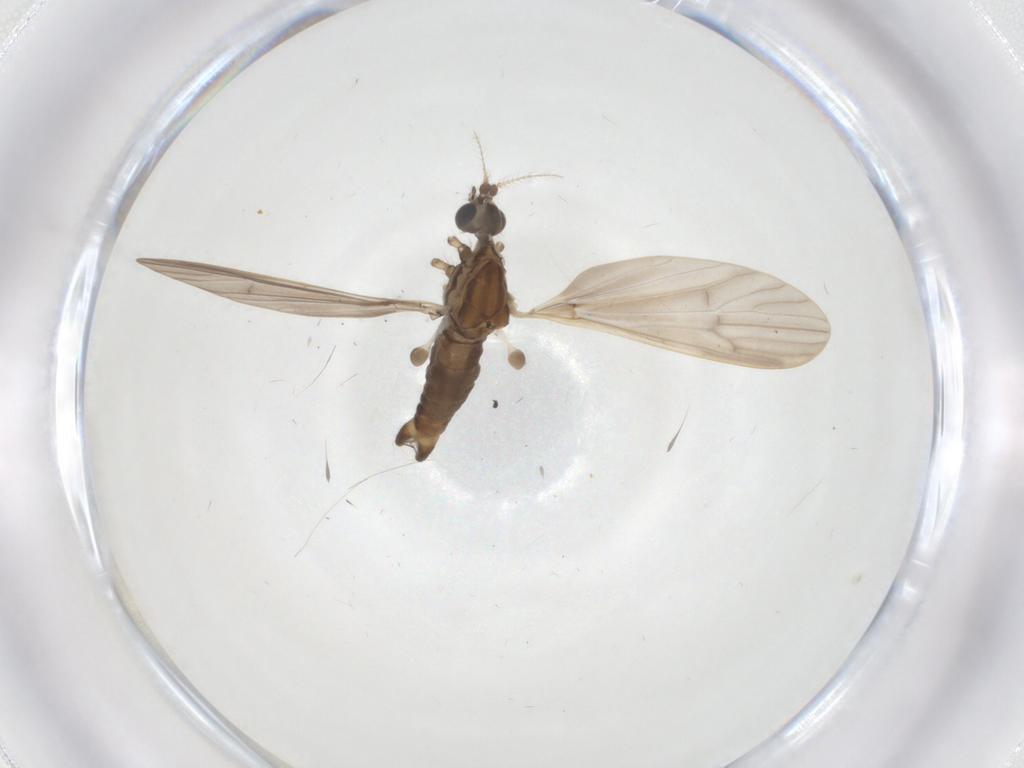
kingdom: Animalia
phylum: Arthropoda
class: Insecta
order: Diptera
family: Limoniidae
